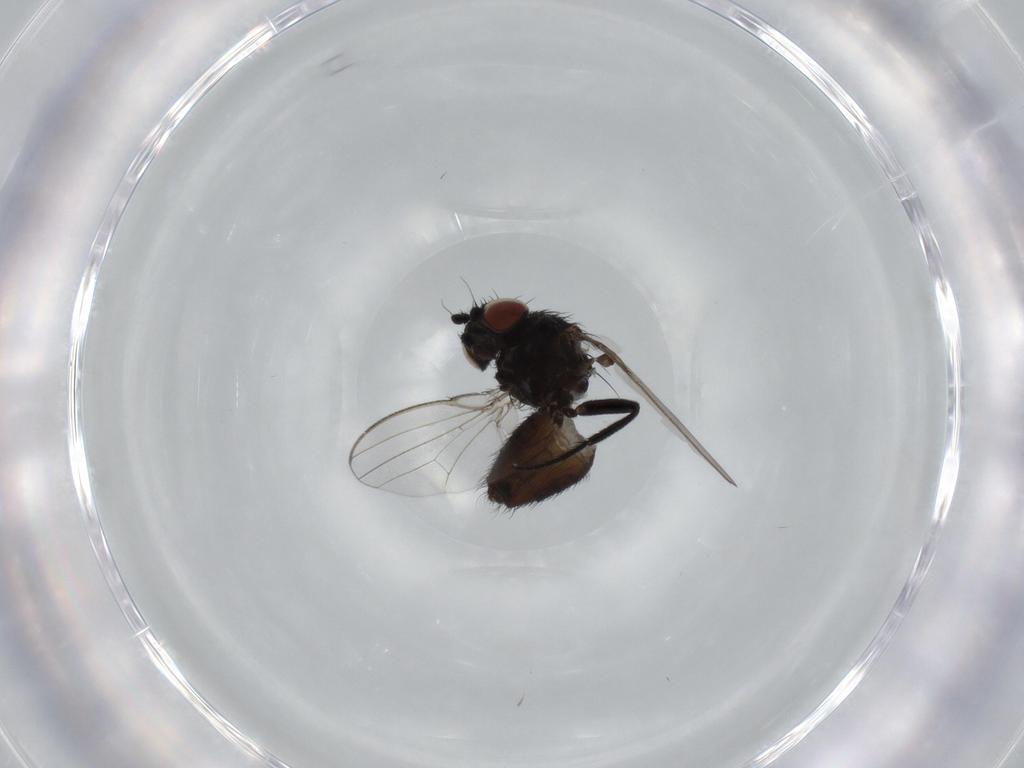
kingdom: Animalia
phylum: Arthropoda
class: Insecta
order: Diptera
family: Milichiidae
